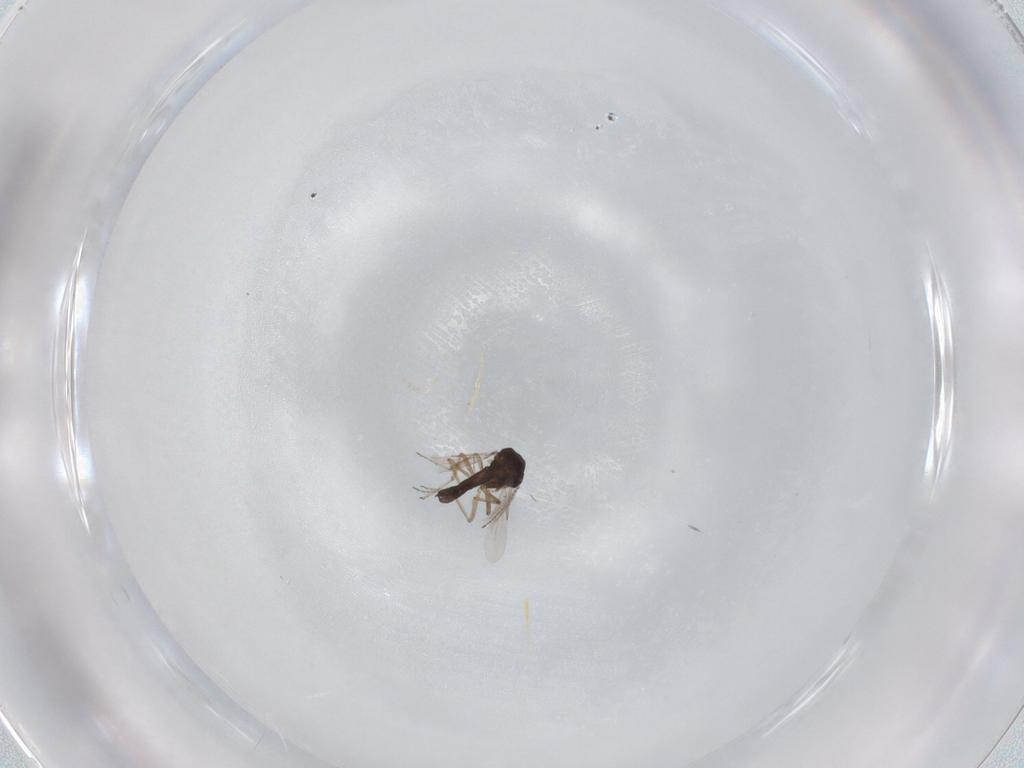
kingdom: Animalia
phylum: Arthropoda
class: Insecta
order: Diptera
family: Ceratopogonidae
